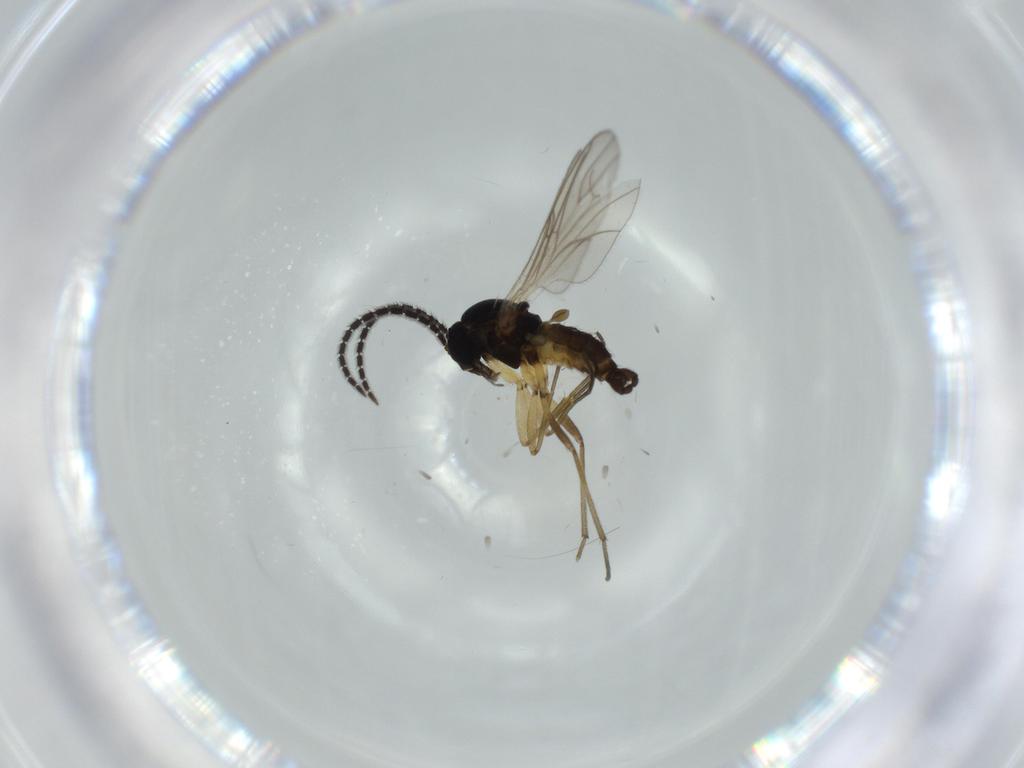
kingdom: Animalia
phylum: Arthropoda
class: Insecta
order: Diptera
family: Sciaridae
